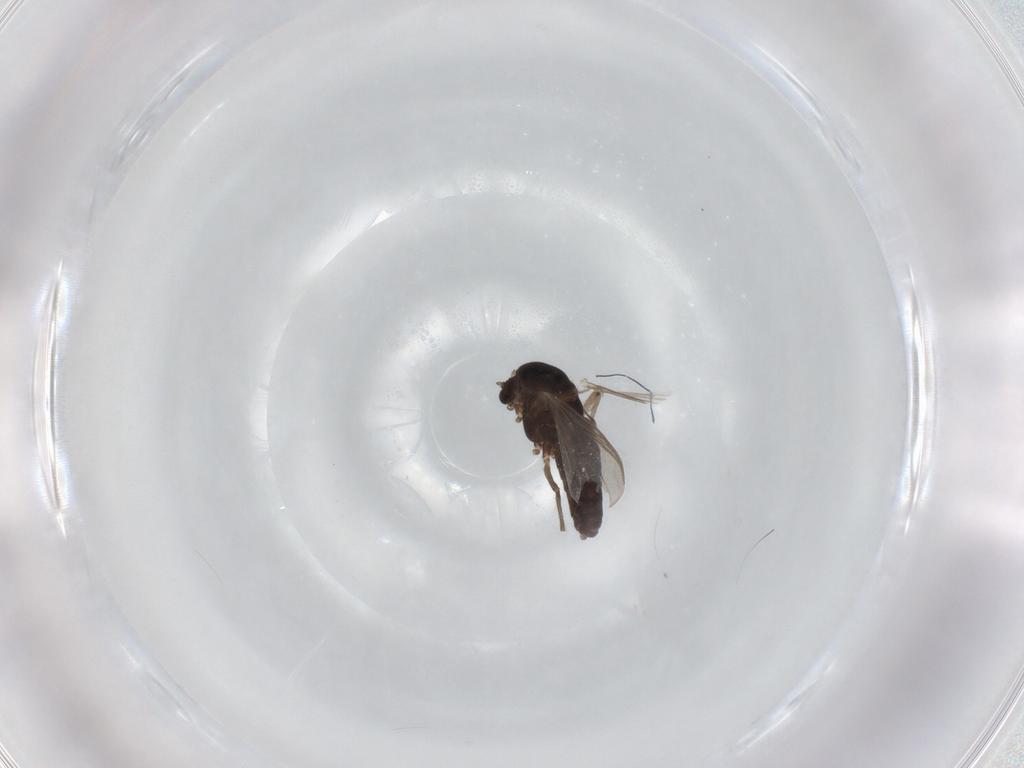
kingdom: Animalia
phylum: Arthropoda
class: Insecta
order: Diptera
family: Chironomidae
